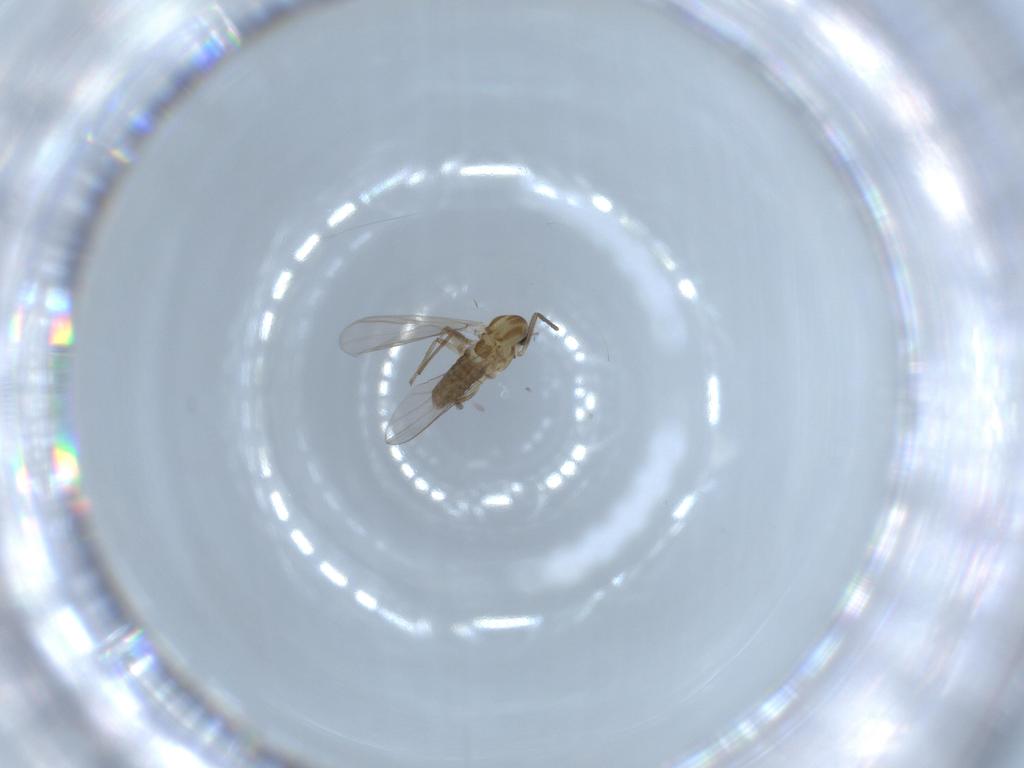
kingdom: Animalia
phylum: Arthropoda
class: Insecta
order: Diptera
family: Chironomidae
